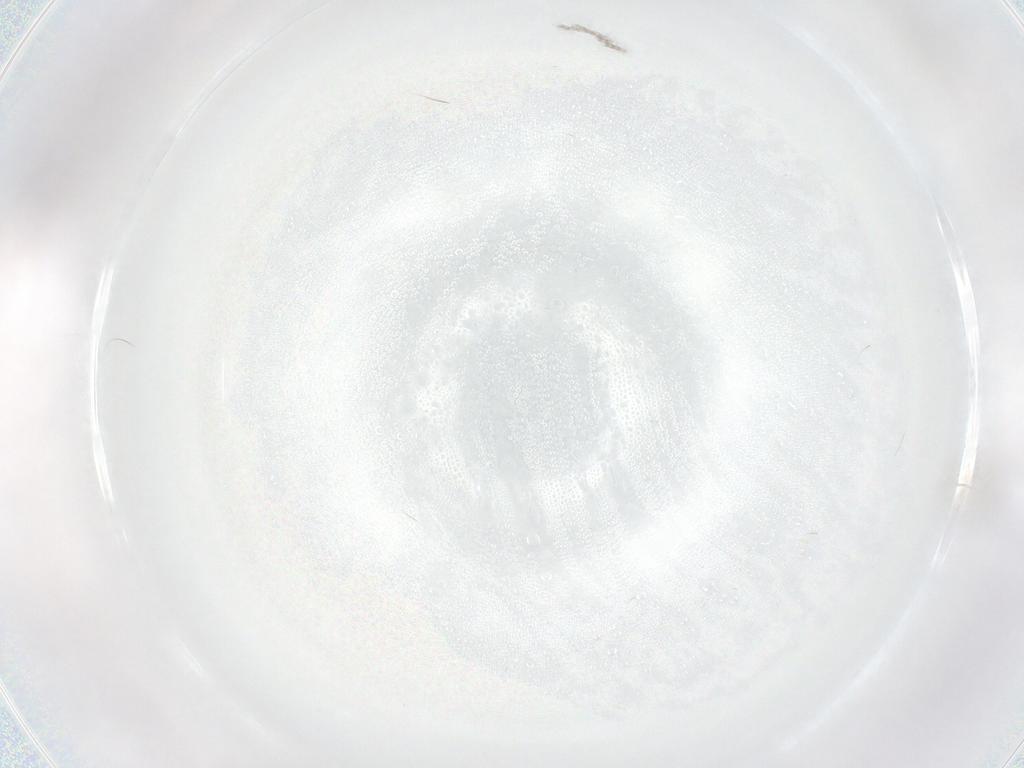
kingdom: Animalia
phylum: Arthropoda
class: Insecta
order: Diptera
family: Psychodidae
